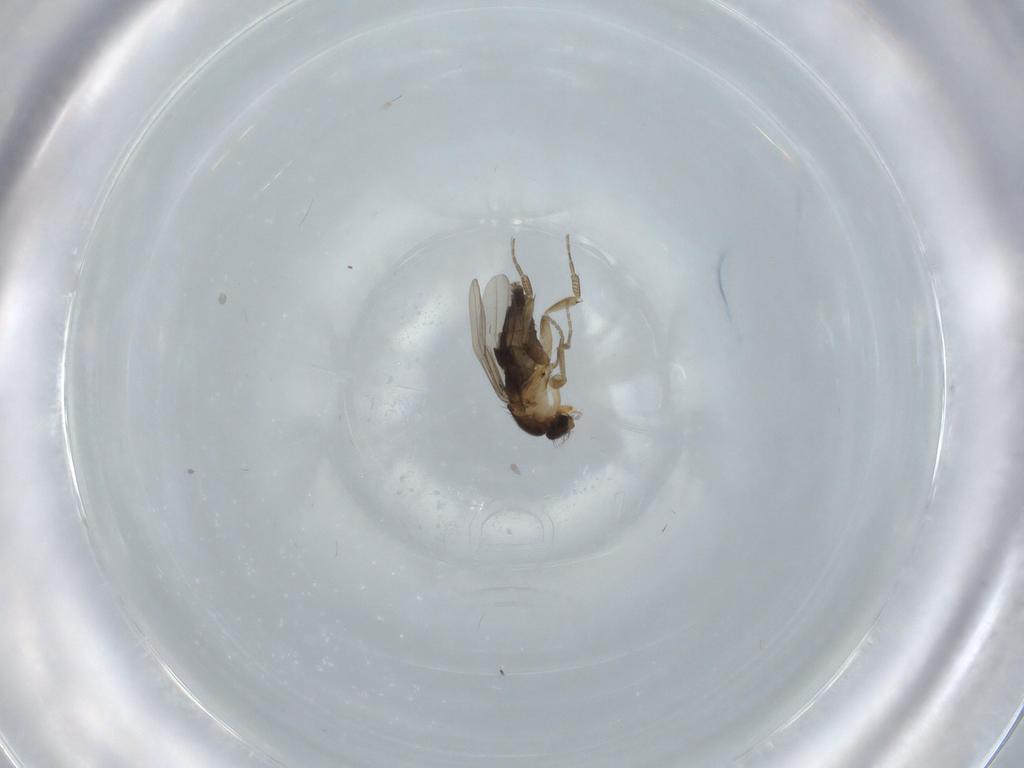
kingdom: Animalia
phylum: Arthropoda
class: Insecta
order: Diptera
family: Phoridae
